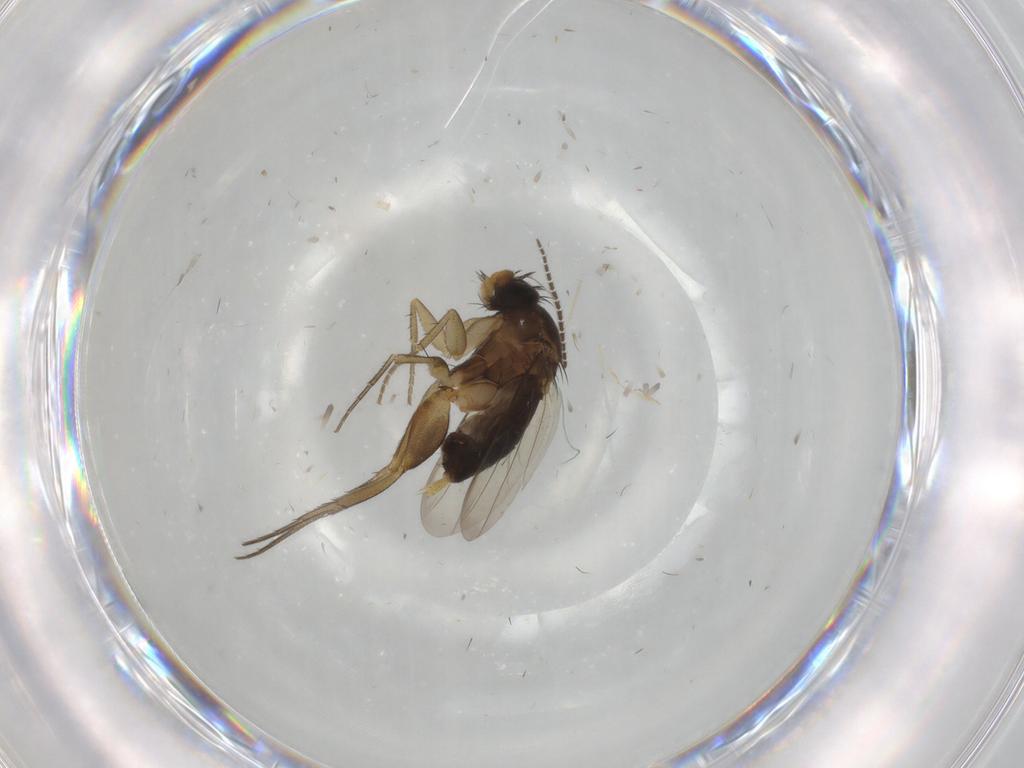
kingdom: Animalia
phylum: Arthropoda
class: Insecta
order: Diptera
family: Phoridae
